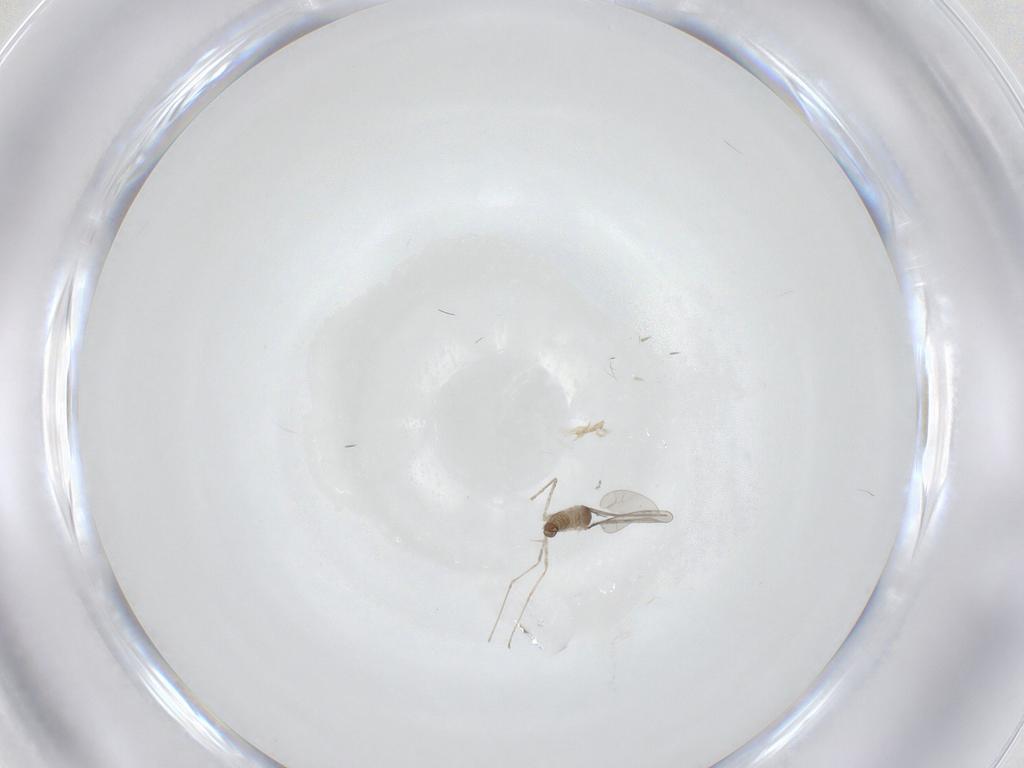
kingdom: Animalia
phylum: Arthropoda
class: Insecta
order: Diptera
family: Cecidomyiidae
